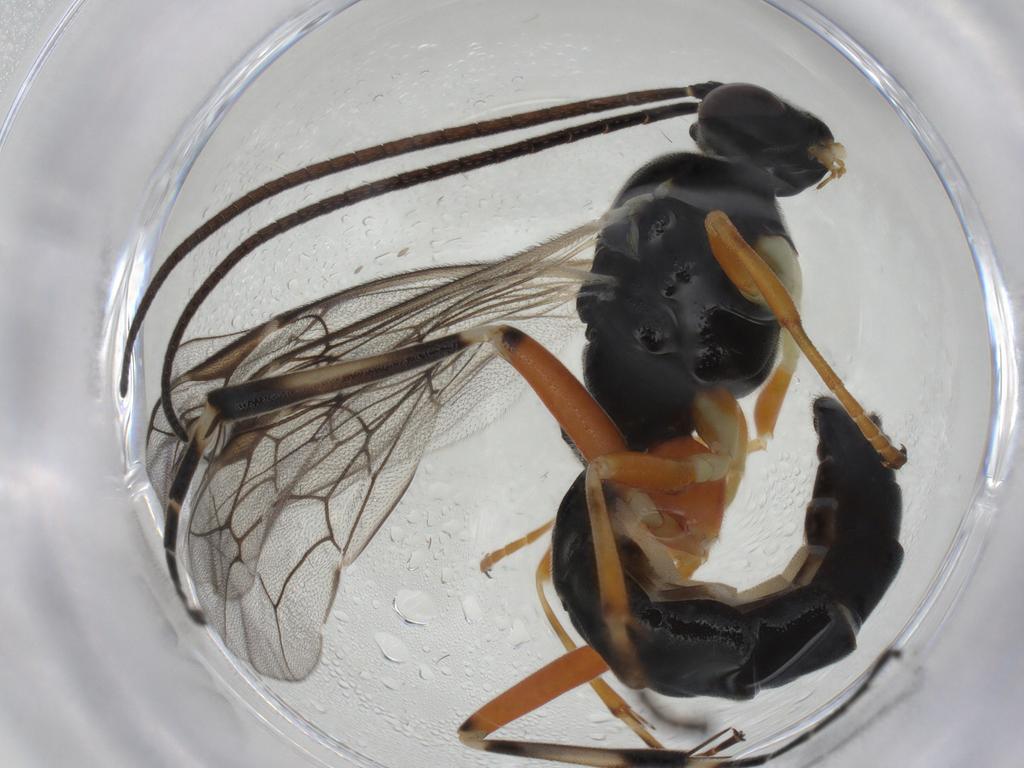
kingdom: Animalia
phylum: Arthropoda
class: Insecta
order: Hymenoptera
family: Ichneumonidae
